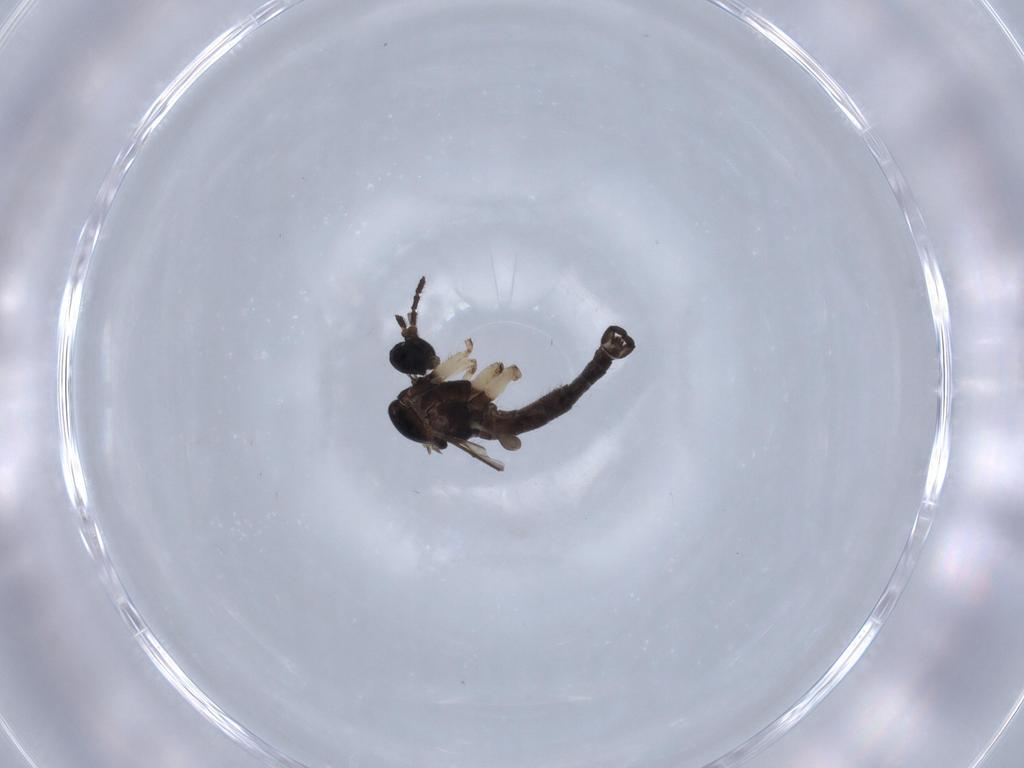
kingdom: Animalia
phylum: Arthropoda
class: Insecta
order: Diptera
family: Sciaridae
